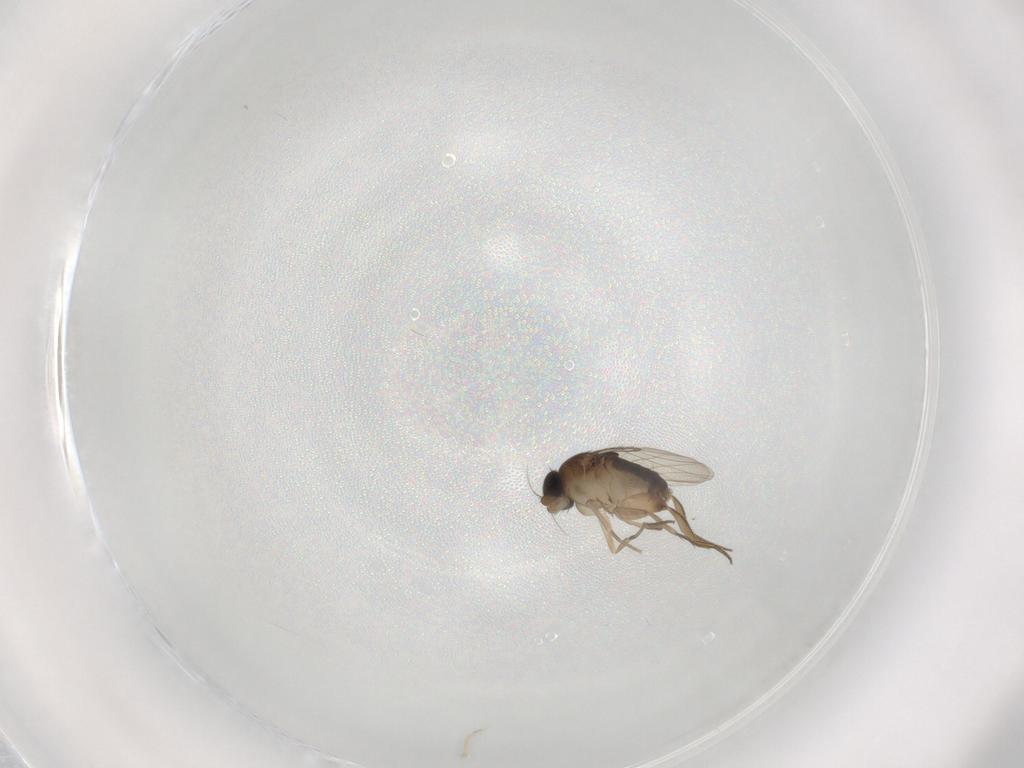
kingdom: Animalia
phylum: Arthropoda
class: Insecta
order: Diptera
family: Phoridae
